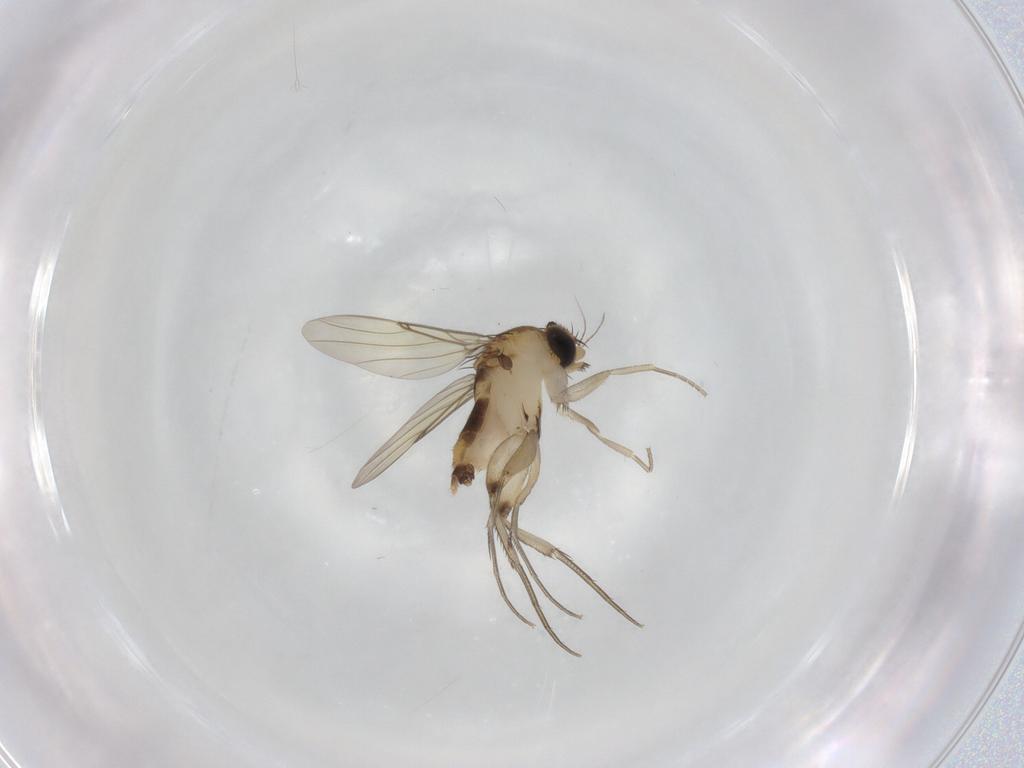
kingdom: Animalia
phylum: Arthropoda
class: Insecta
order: Diptera
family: Phoridae
